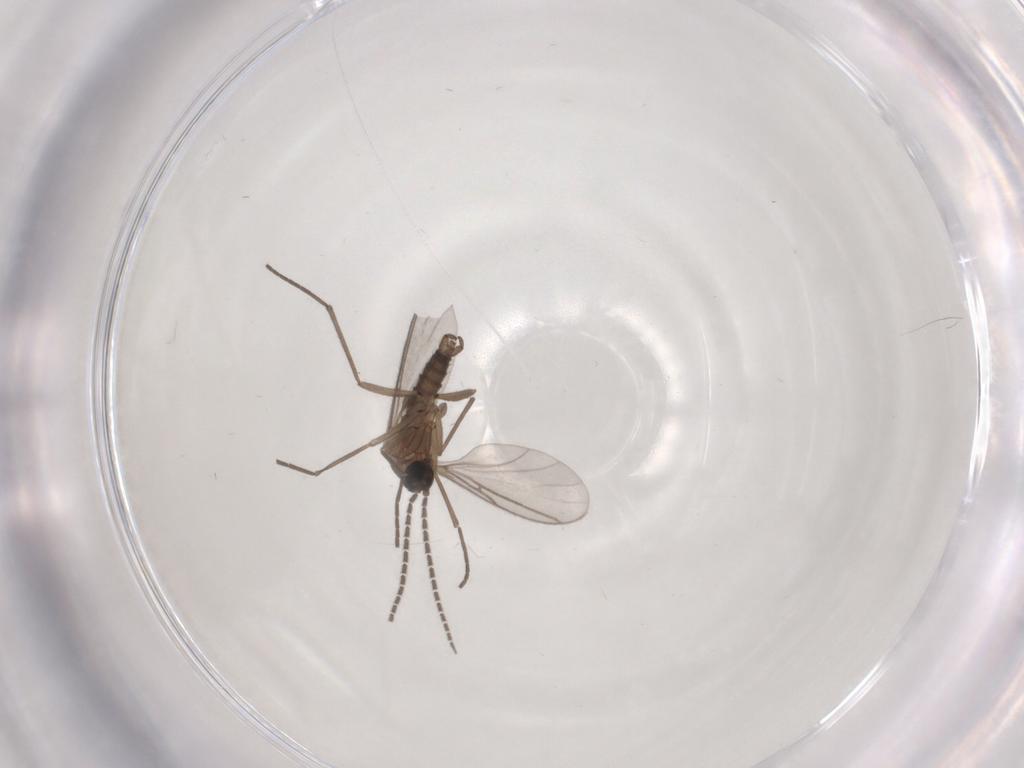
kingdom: Animalia
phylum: Arthropoda
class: Insecta
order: Diptera
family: Sciaridae
